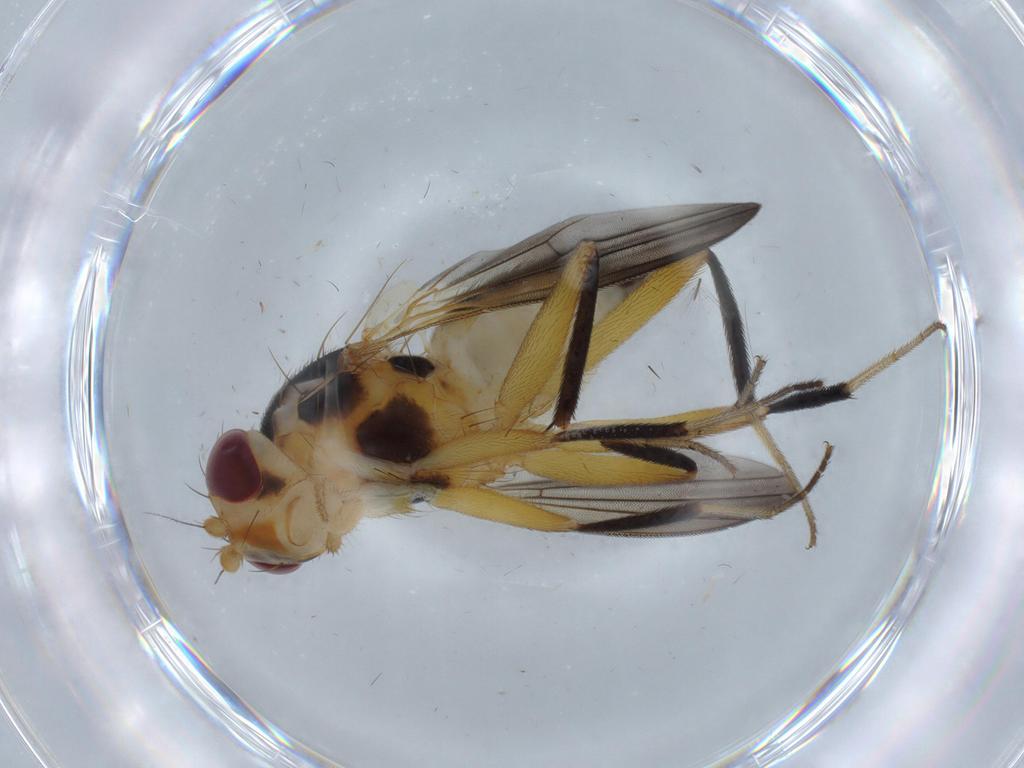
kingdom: Animalia
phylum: Arthropoda
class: Insecta
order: Diptera
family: Clusiidae
